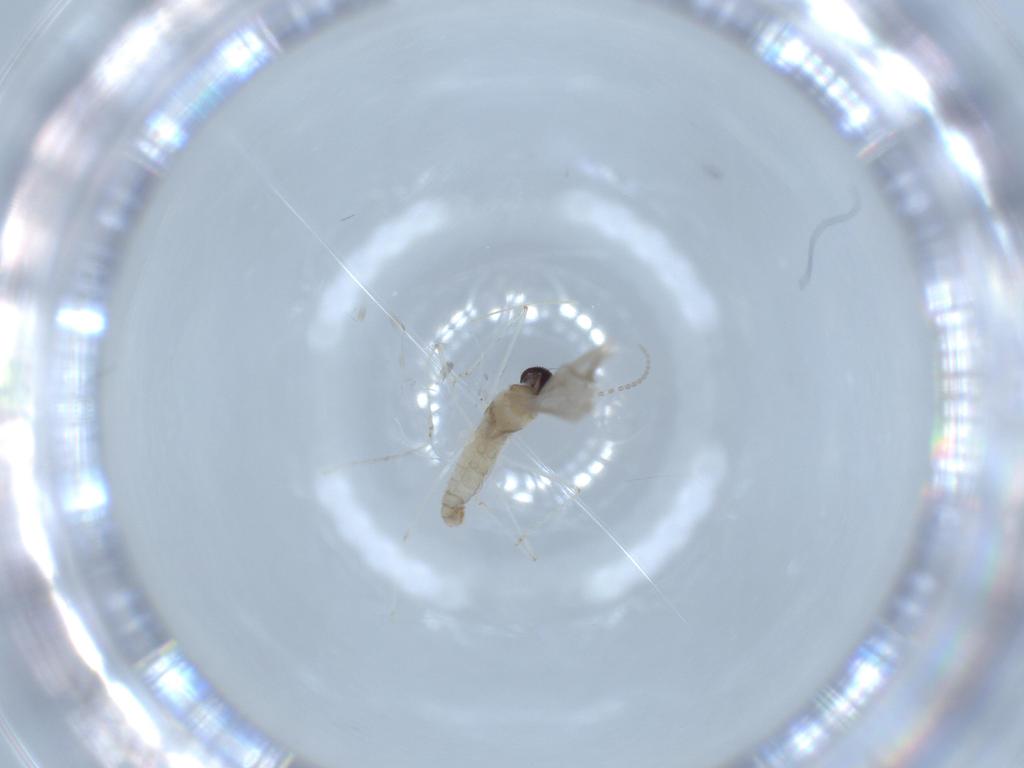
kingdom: Animalia
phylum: Arthropoda
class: Insecta
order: Diptera
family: Cecidomyiidae
